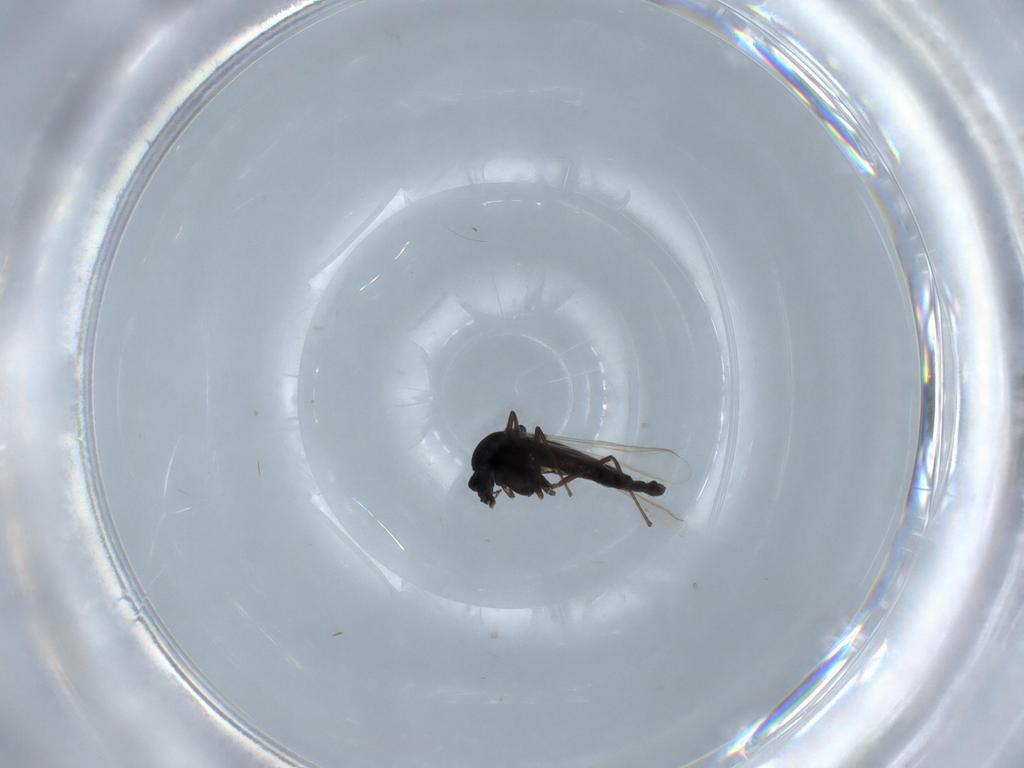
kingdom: Animalia
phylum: Arthropoda
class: Insecta
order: Diptera
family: Chironomidae
